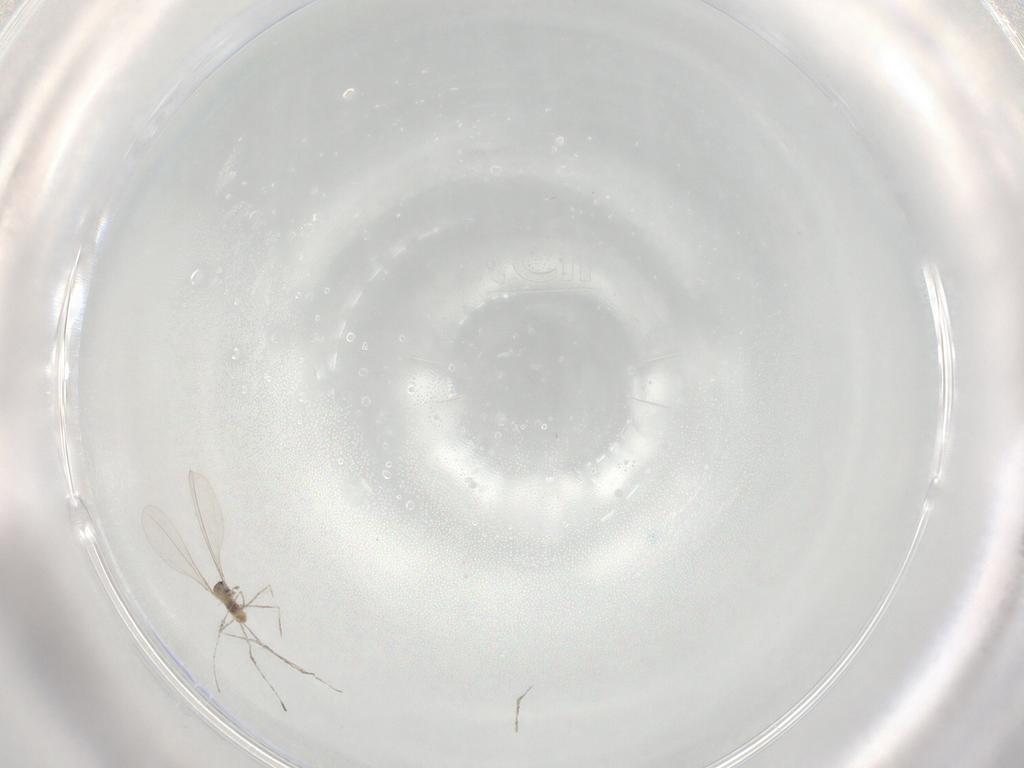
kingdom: Animalia
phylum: Arthropoda
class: Insecta
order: Diptera
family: Cecidomyiidae
